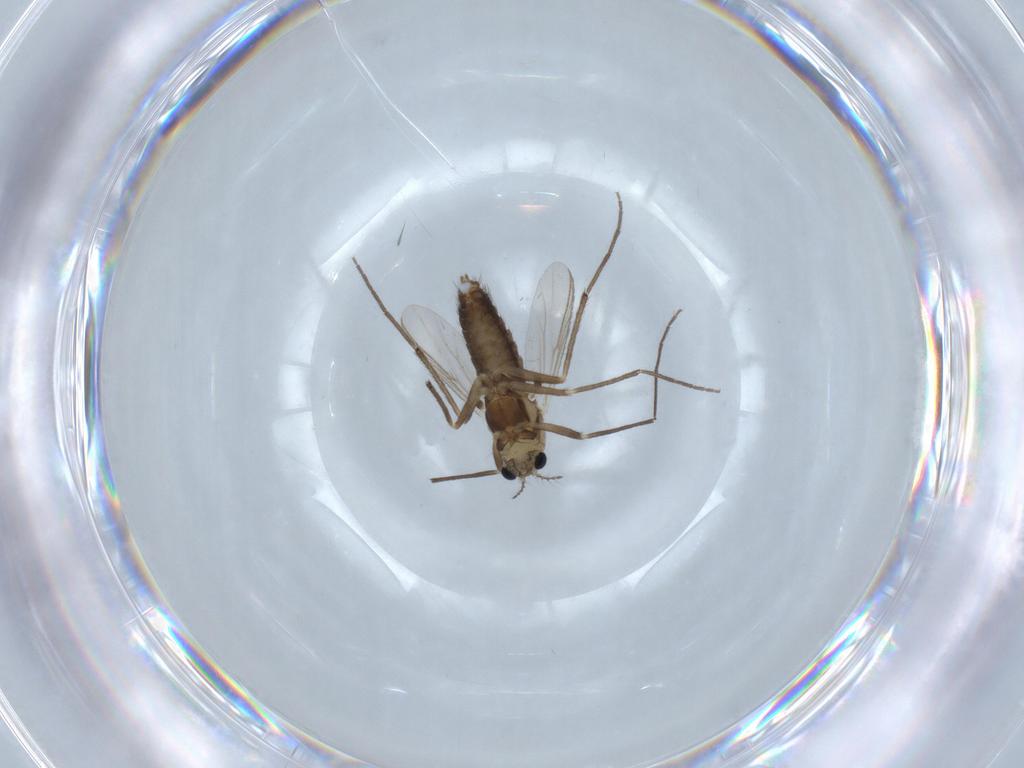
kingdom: Animalia
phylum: Arthropoda
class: Insecta
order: Diptera
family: Chironomidae
